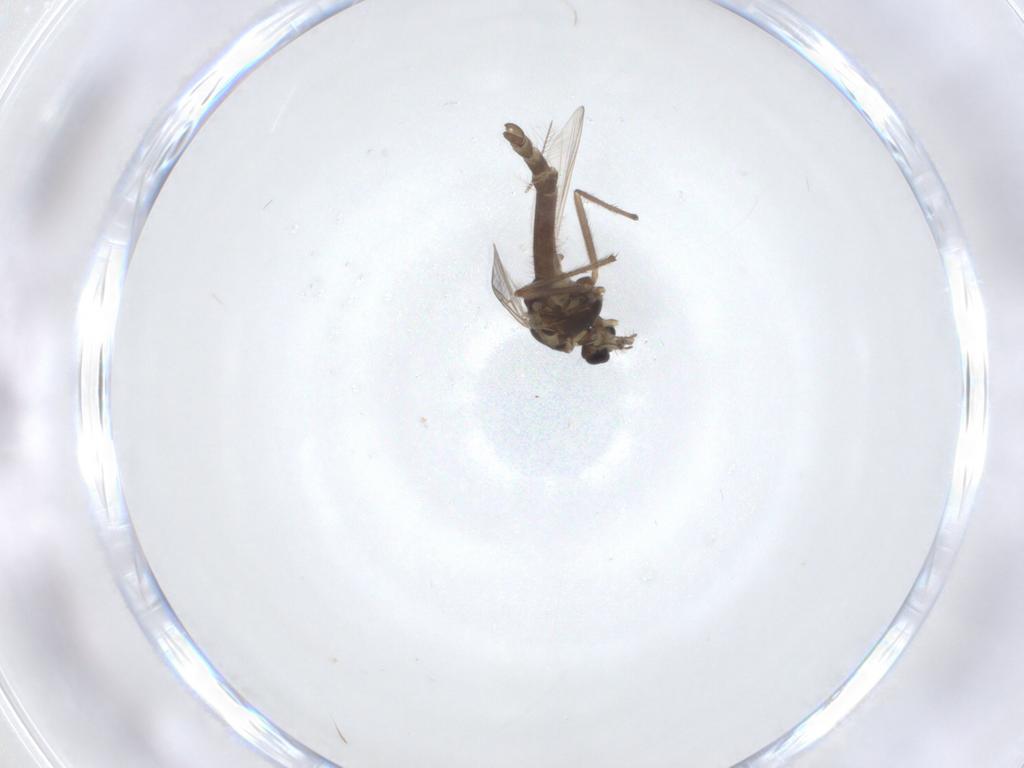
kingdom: Animalia
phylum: Arthropoda
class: Insecta
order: Diptera
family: Chironomidae
